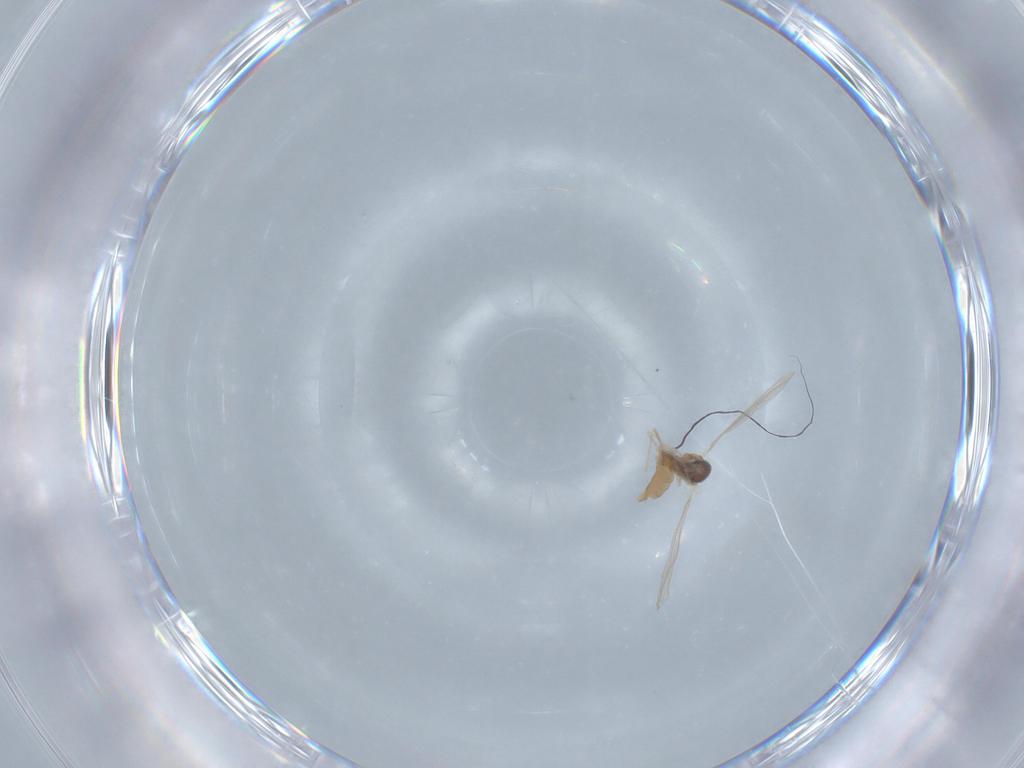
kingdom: Animalia
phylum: Arthropoda
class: Insecta
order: Diptera
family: Cecidomyiidae
